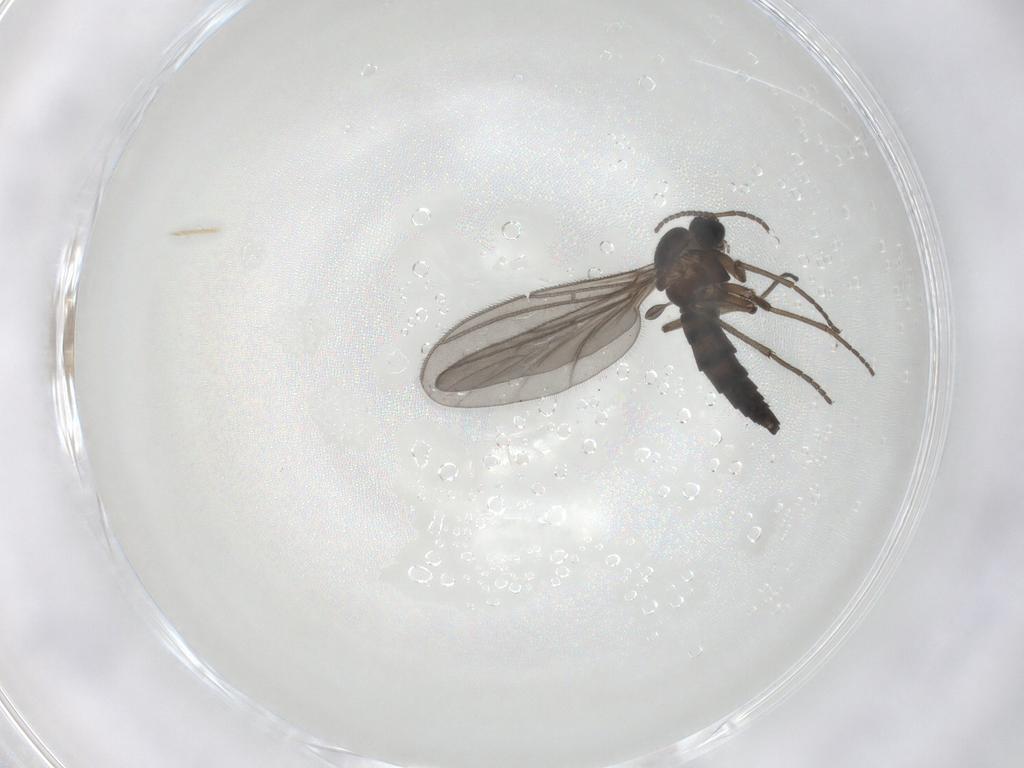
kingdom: Animalia
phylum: Arthropoda
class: Insecta
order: Diptera
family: Sciaridae
